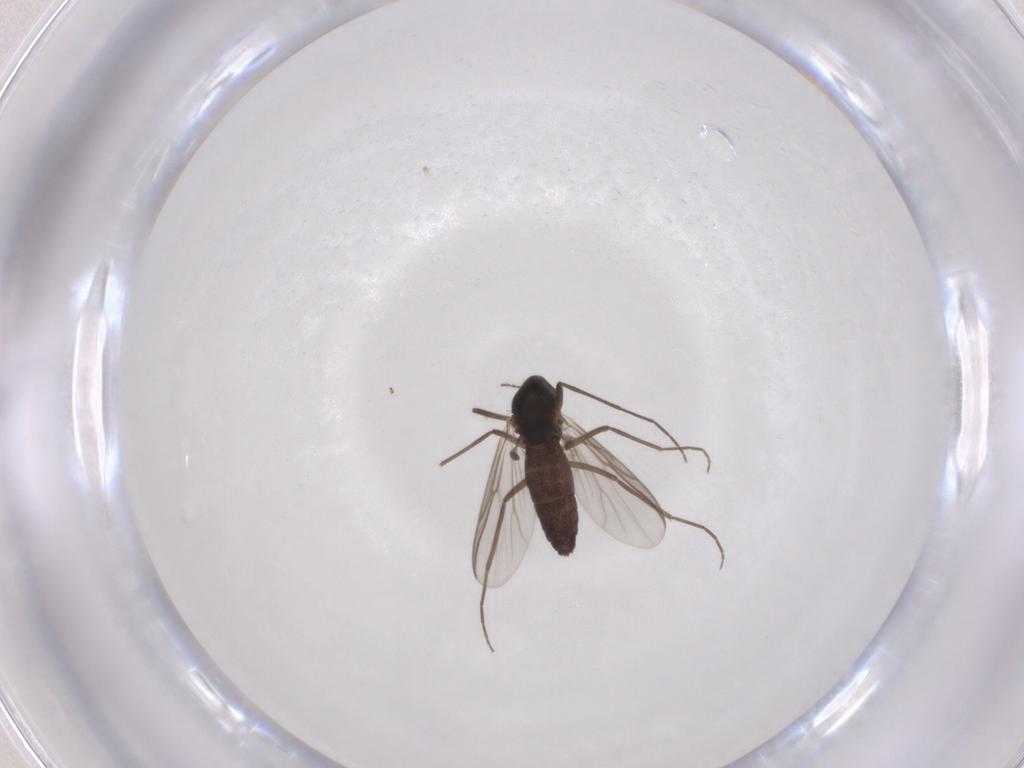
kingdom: Animalia
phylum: Arthropoda
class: Insecta
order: Diptera
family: Chironomidae
